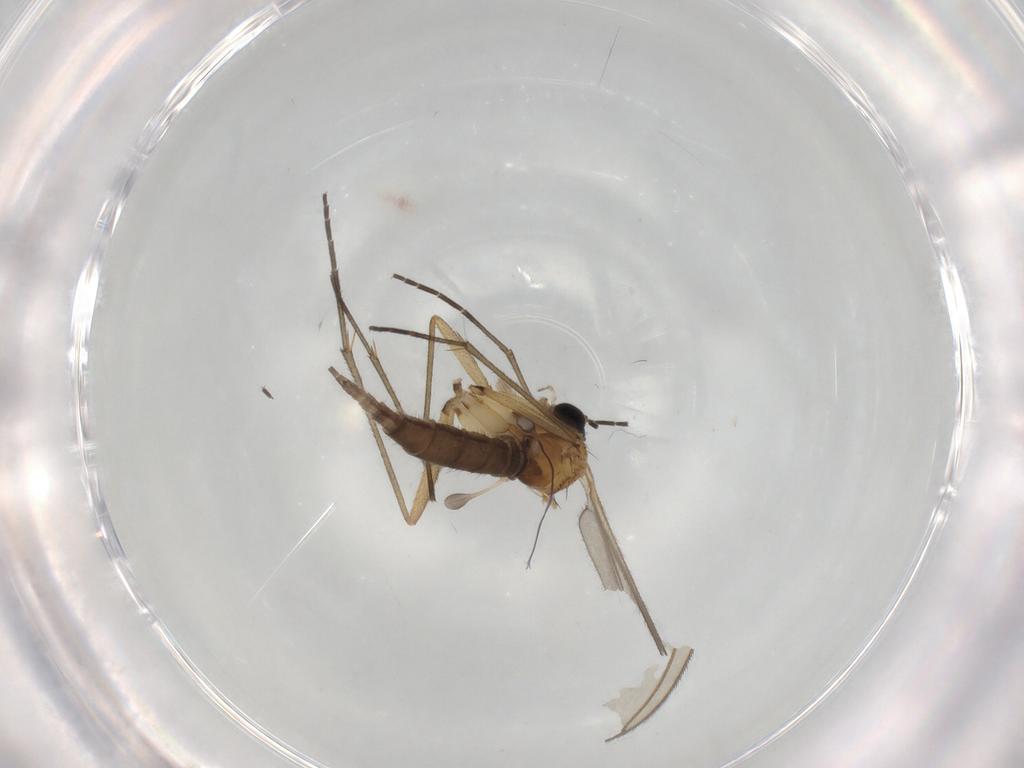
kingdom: Animalia
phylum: Arthropoda
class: Insecta
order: Diptera
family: Sciaridae
